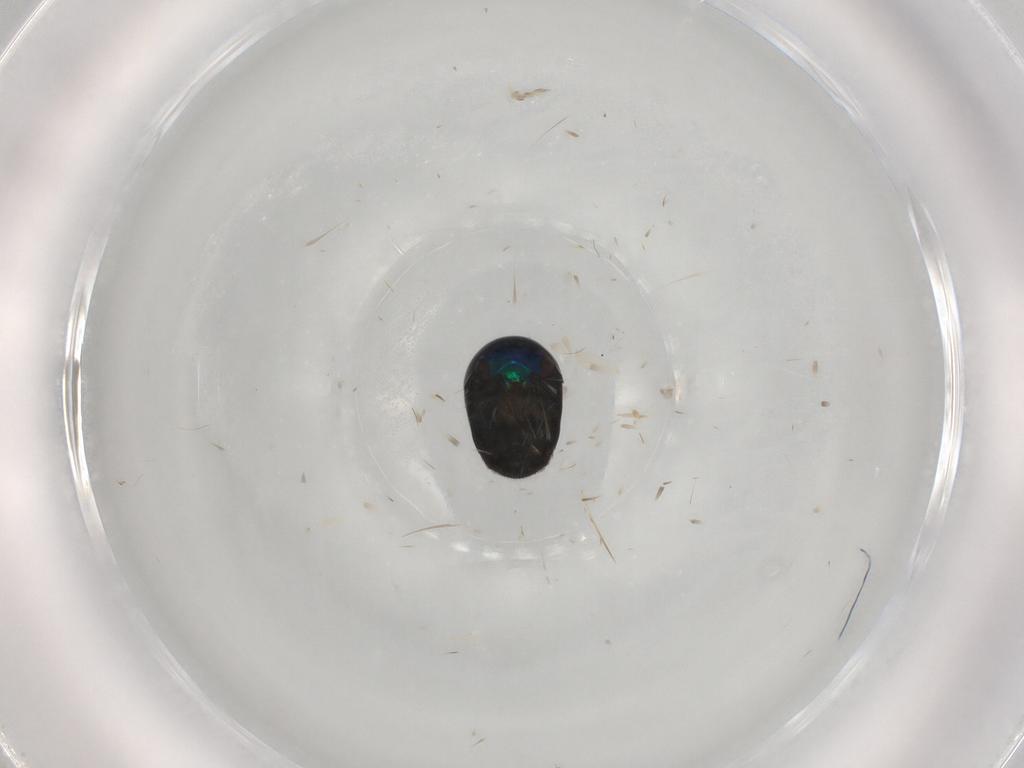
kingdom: Animalia
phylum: Arthropoda
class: Insecta
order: Coleoptera
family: Cybocephalidae
